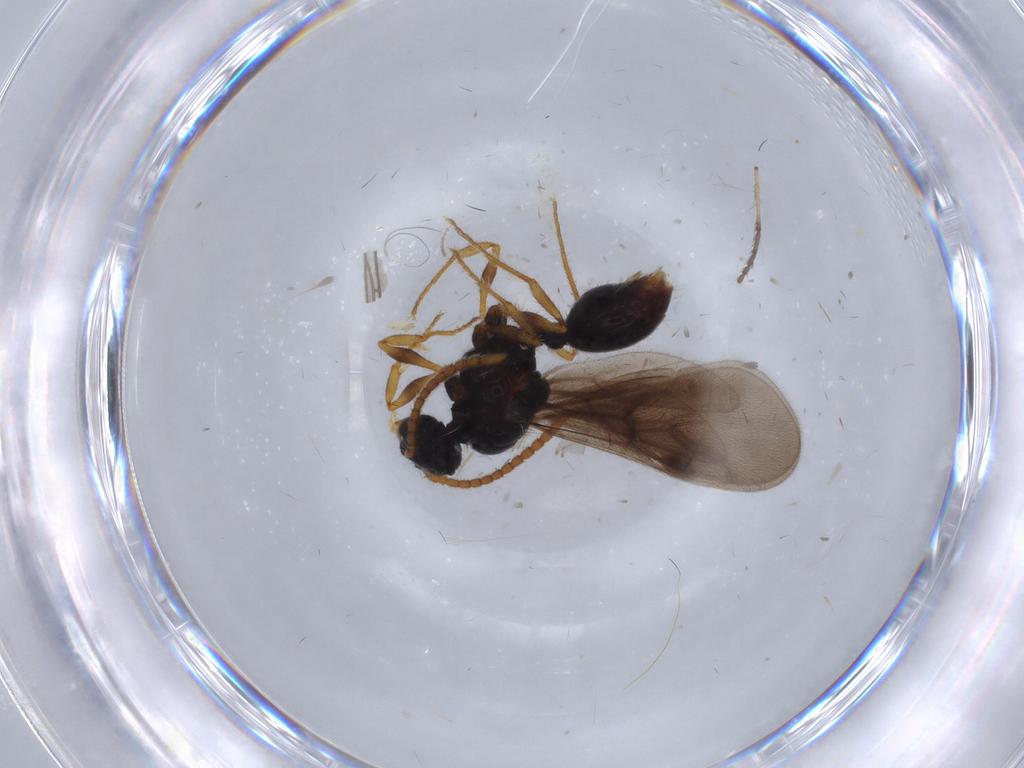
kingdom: Animalia
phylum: Arthropoda
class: Insecta
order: Hymenoptera
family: Formicidae
